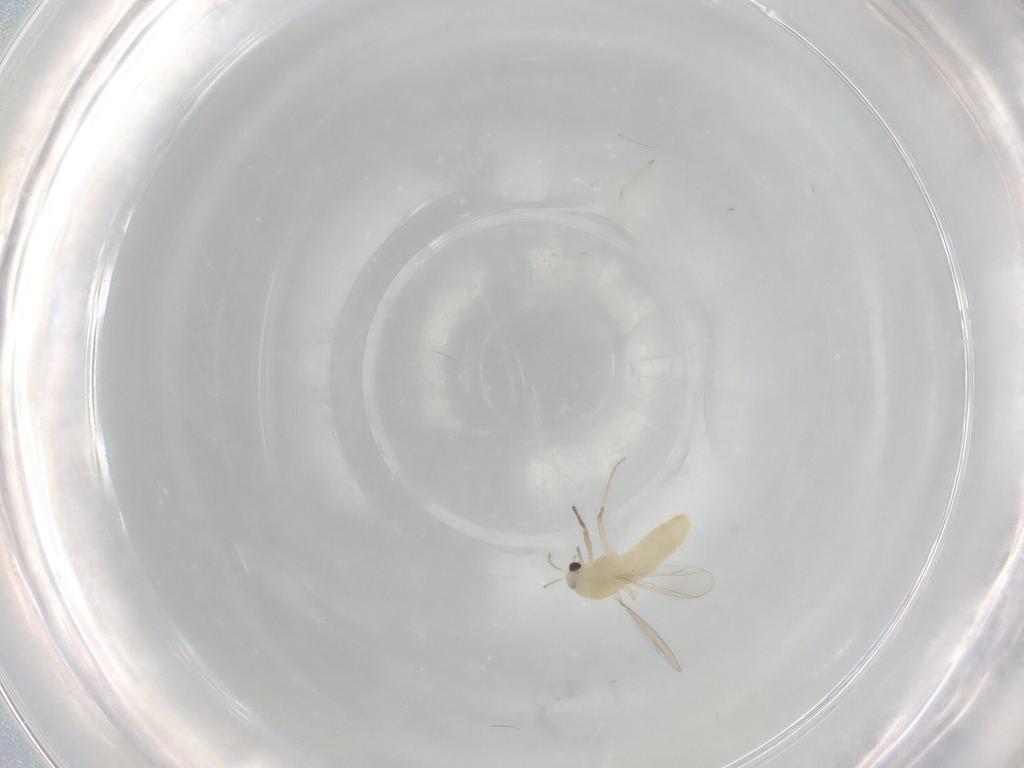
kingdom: Animalia
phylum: Arthropoda
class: Insecta
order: Diptera
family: Chironomidae
